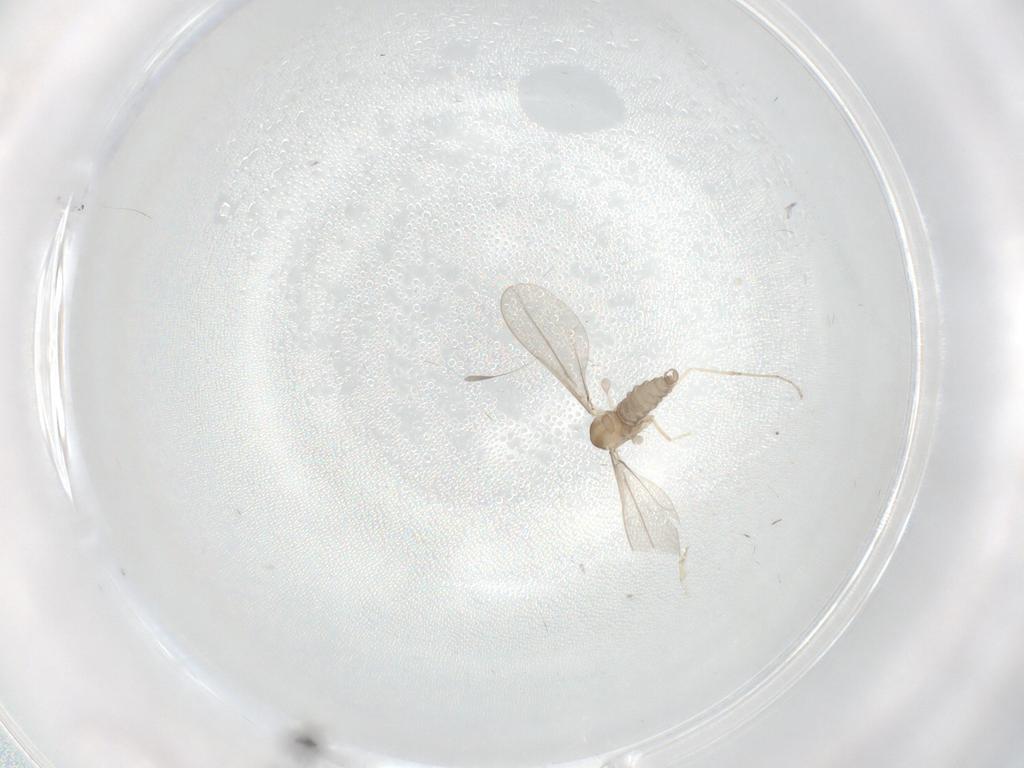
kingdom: Animalia
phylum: Arthropoda
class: Insecta
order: Diptera
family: Cecidomyiidae
